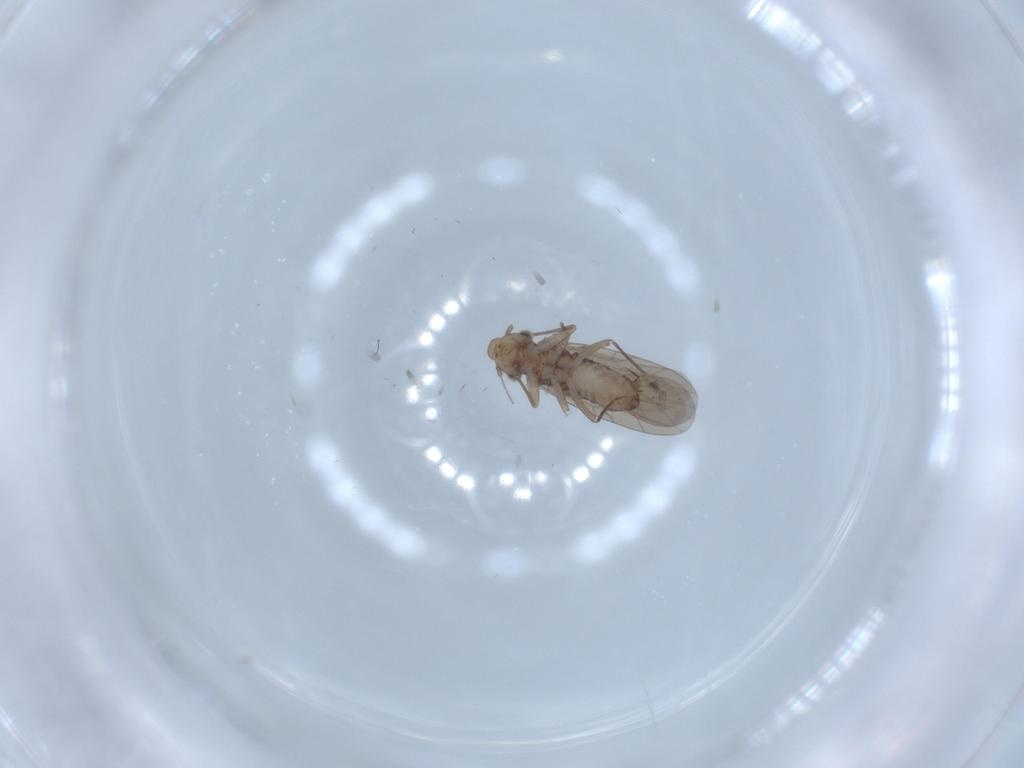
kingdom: Animalia
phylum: Arthropoda
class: Insecta
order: Psocodea
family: Lepidopsocidae
